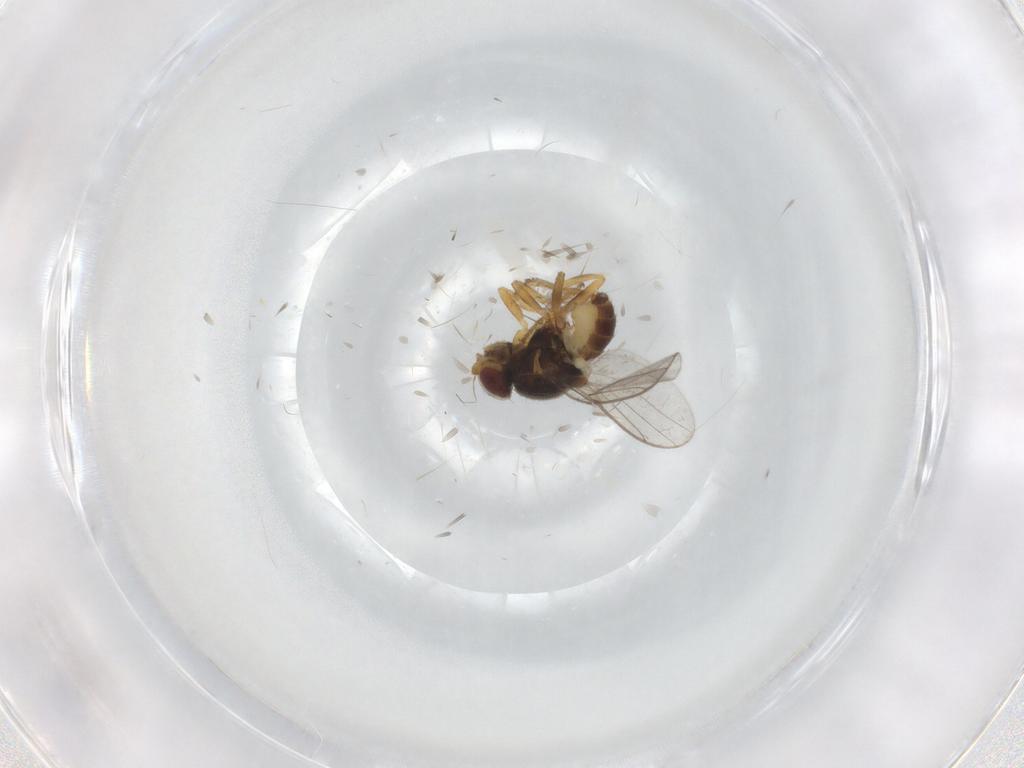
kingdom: Animalia
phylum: Arthropoda
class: Insecta
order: Diptera
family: Chloropidae
